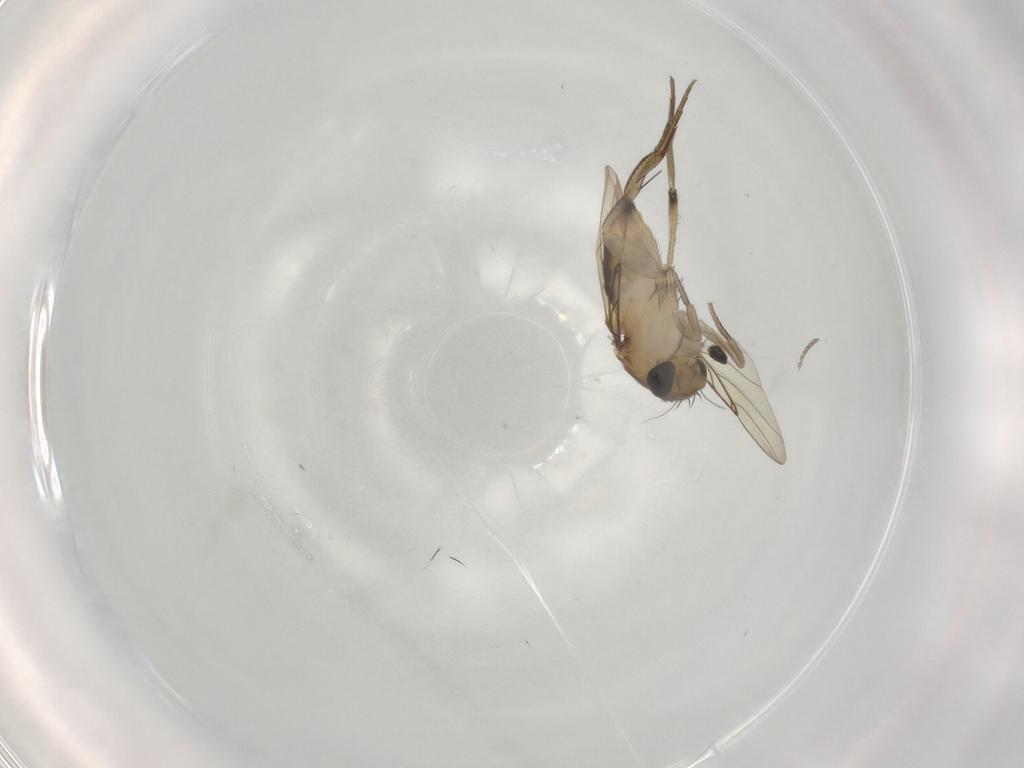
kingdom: Animalia
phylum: Arthropoda
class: Insecta
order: Diptera
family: Cecidomyiidae
